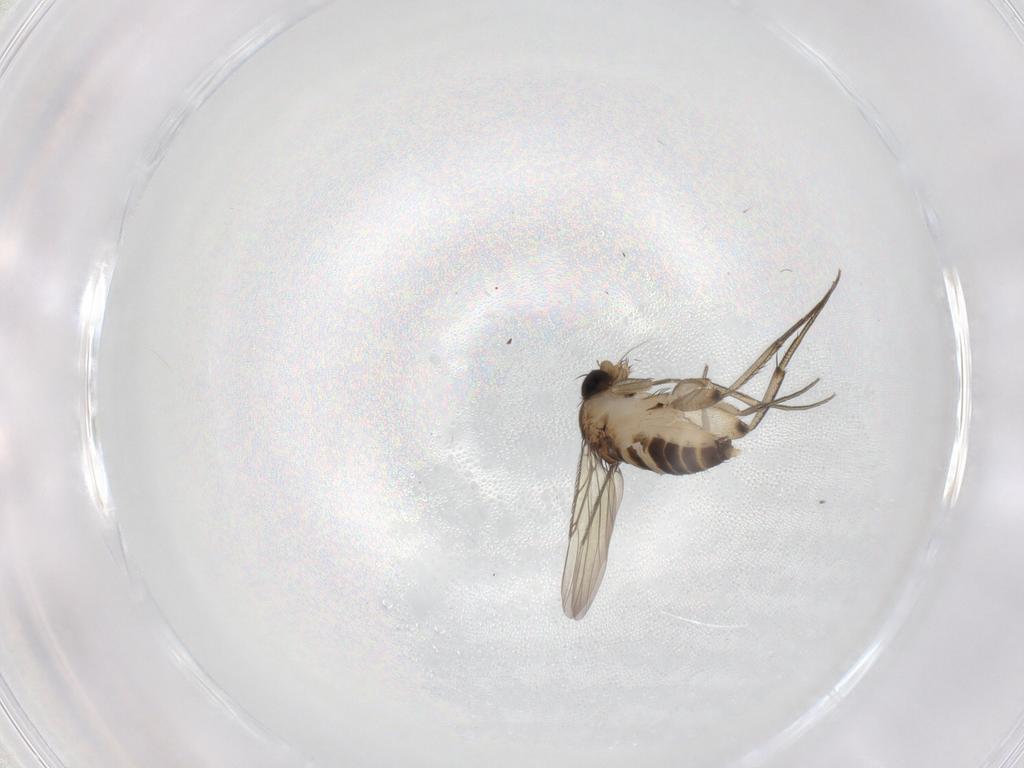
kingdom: Animalia
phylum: Arthropoda
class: Insecta
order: Diptera
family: Phoridae
